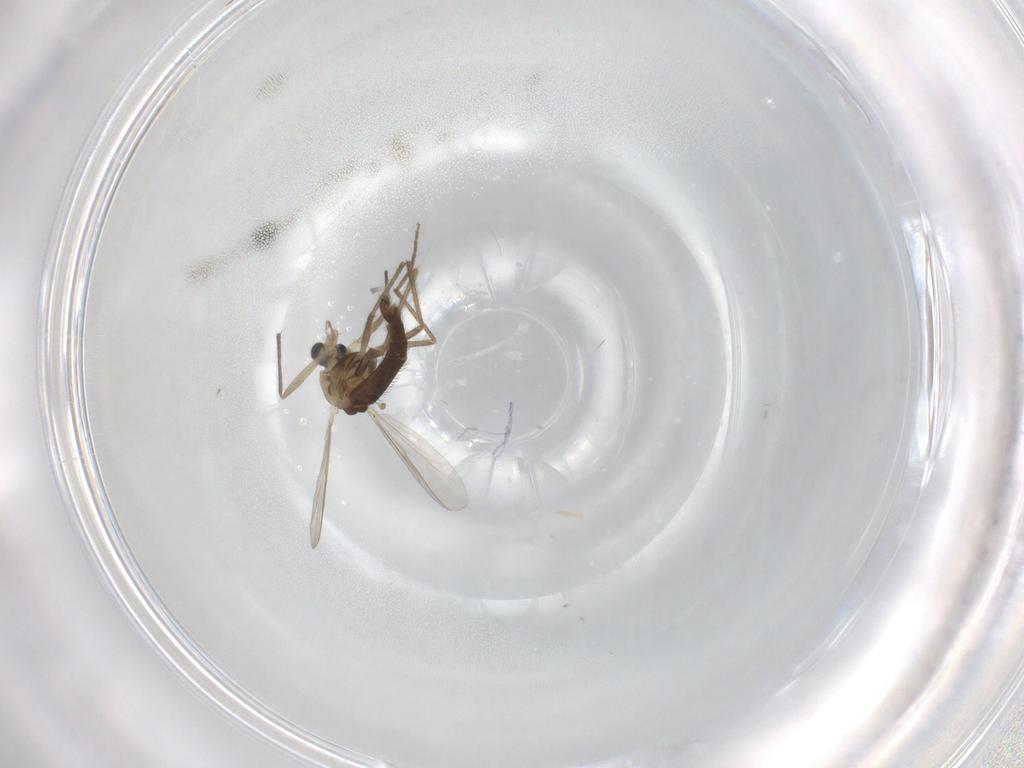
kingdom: Animalia
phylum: Arthropoda
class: Insecta
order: Diptera
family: Chironomidae
